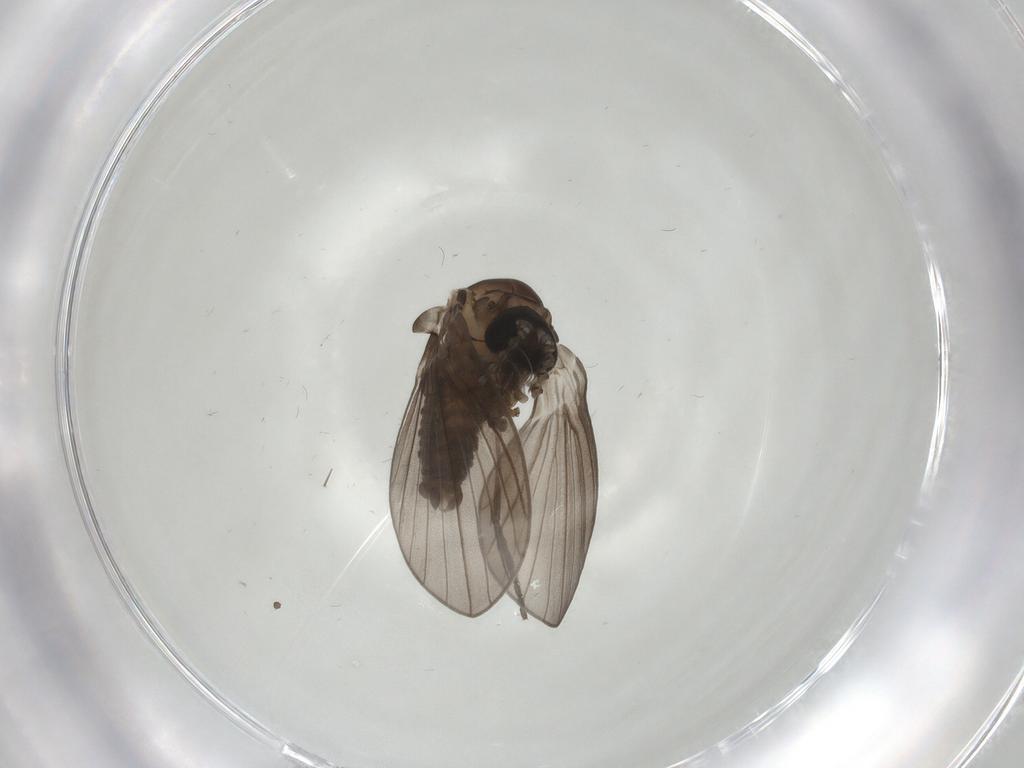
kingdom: Animalia
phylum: Arthropoda
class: Insecta
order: Diptera
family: Psychodidae
